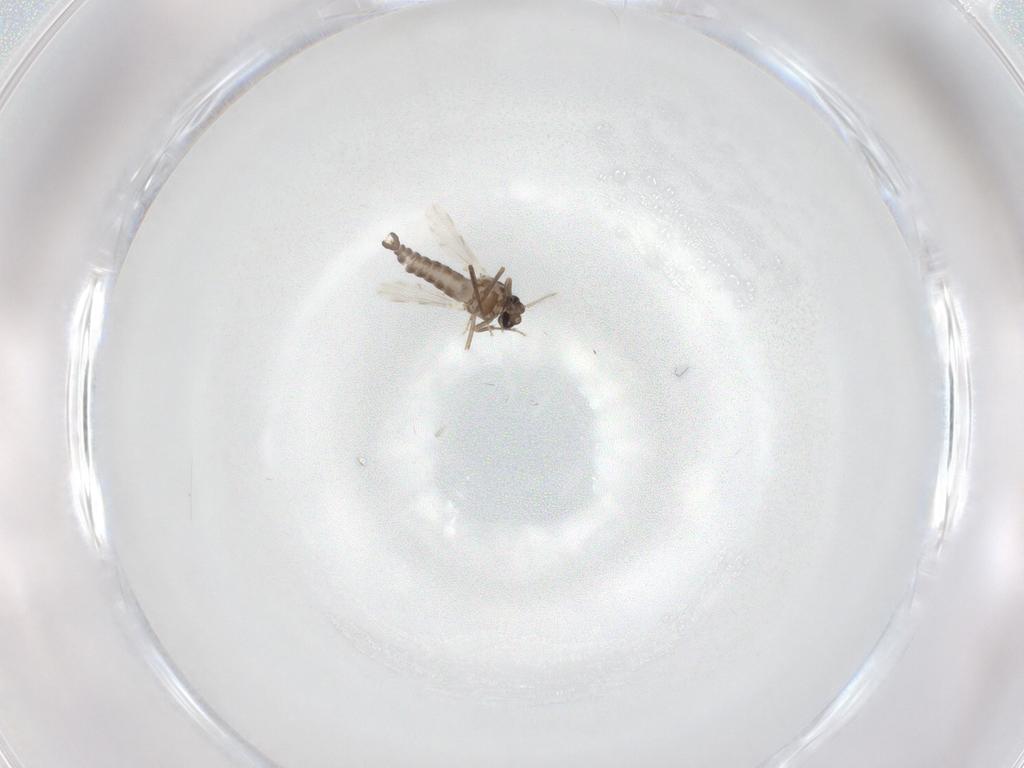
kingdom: Animalia
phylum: Arthropoda
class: Insecta
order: Diptera
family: Ceratopogonidae
